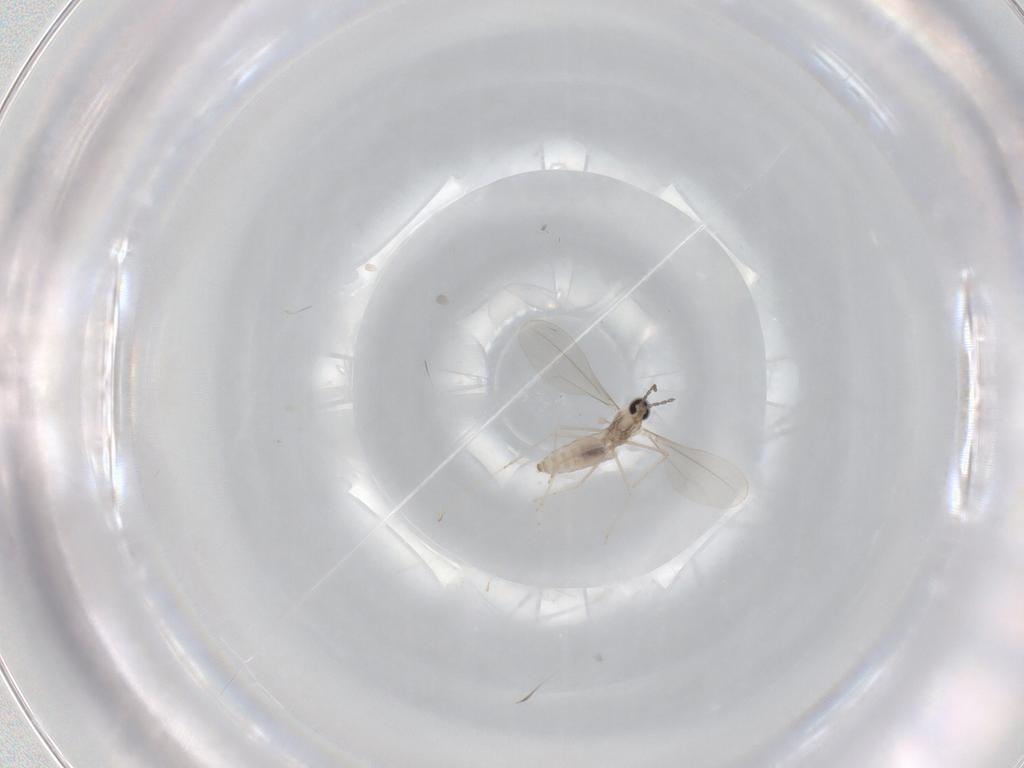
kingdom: Animalia
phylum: Arthropoda
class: Insecta
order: Diptera
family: Cecidomyiidae
